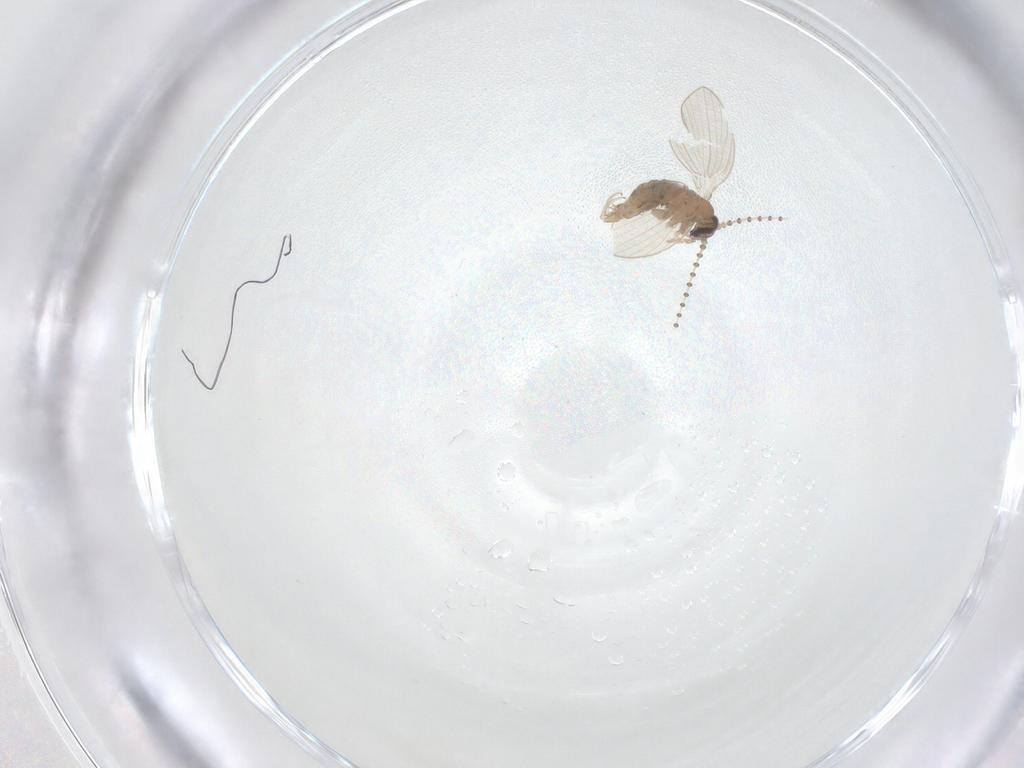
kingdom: Animalia
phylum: Arthropoda
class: Insecta
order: Diptera
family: Psychodidae
